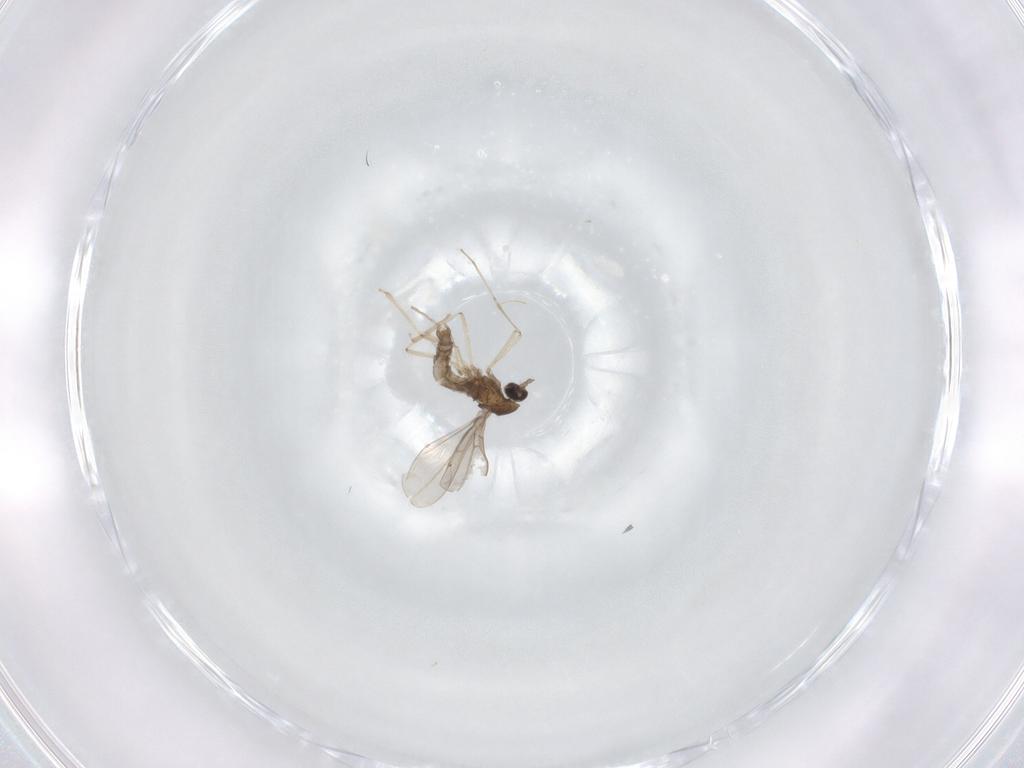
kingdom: Animalia
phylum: Arthropoda
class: Insecta
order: Diptera
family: Cecidomyiidae
